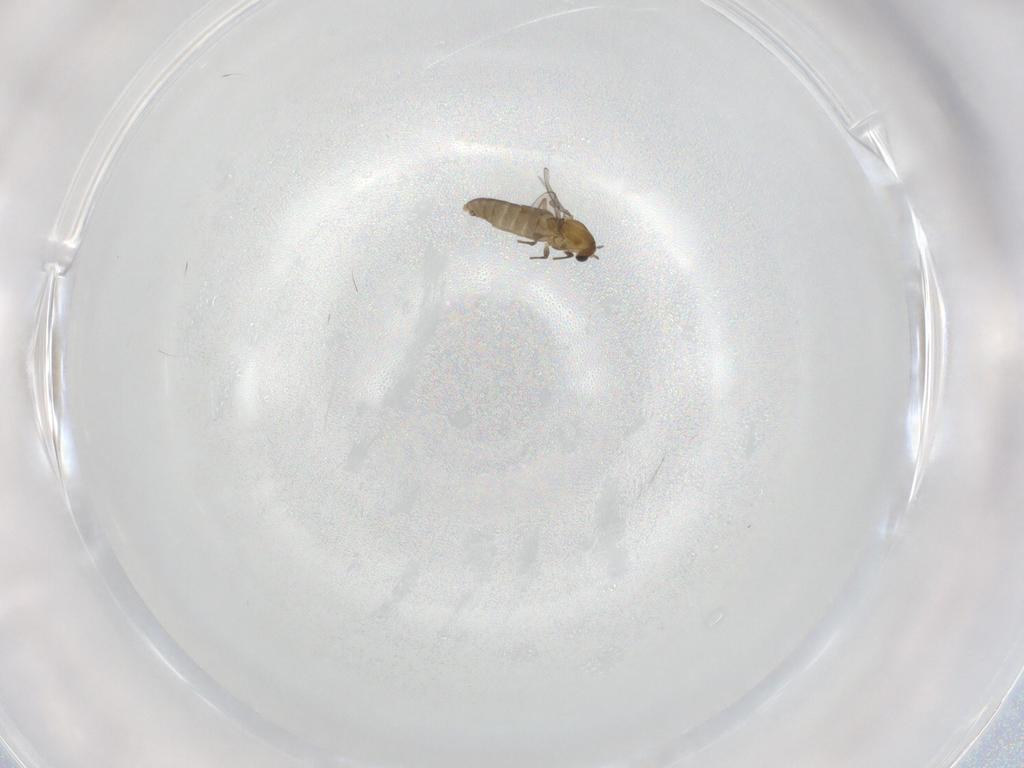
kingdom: Animalia
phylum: Arthropoda
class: Insecta
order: Diptera
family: Chironomidae
